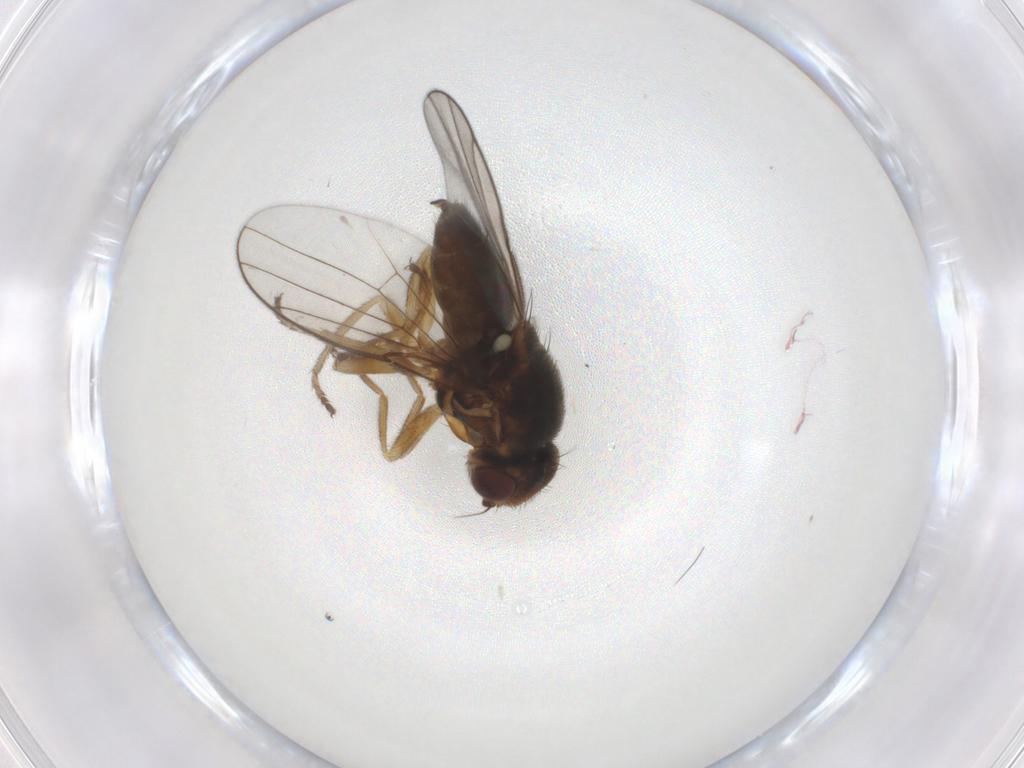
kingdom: Animalia
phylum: Arthropoda
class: Insecta
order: Diptera
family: Chloropidae
